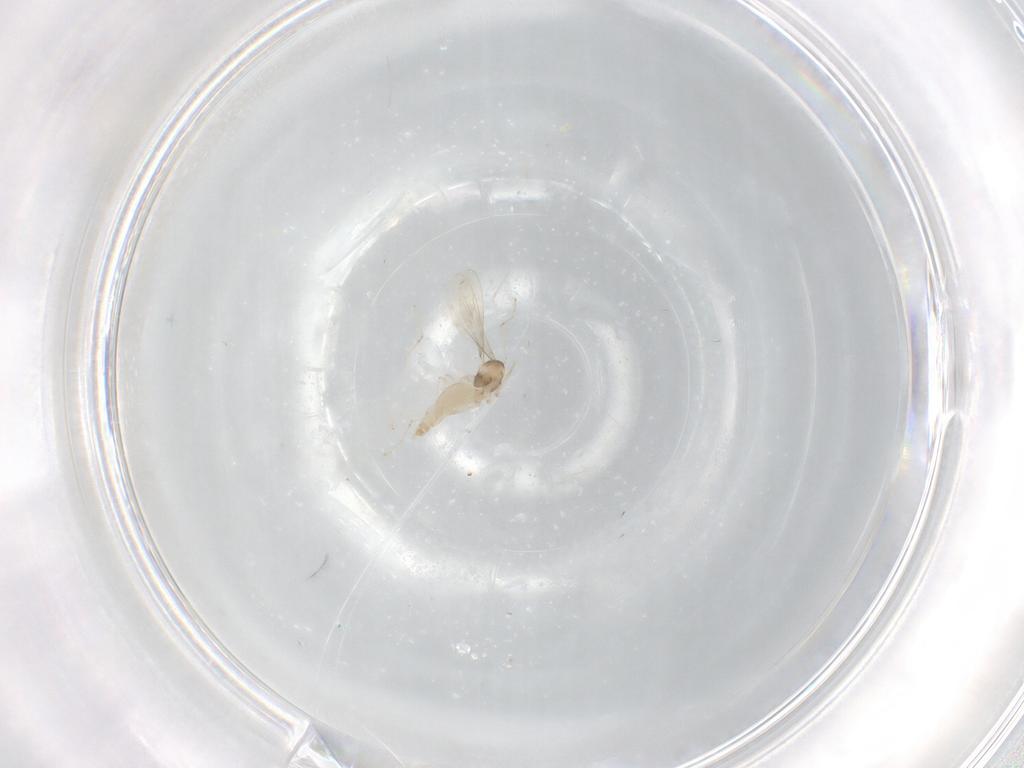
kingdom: Animalia
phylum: Arthropoda
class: Insecta
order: Diptera
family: Cecidomyiidae
